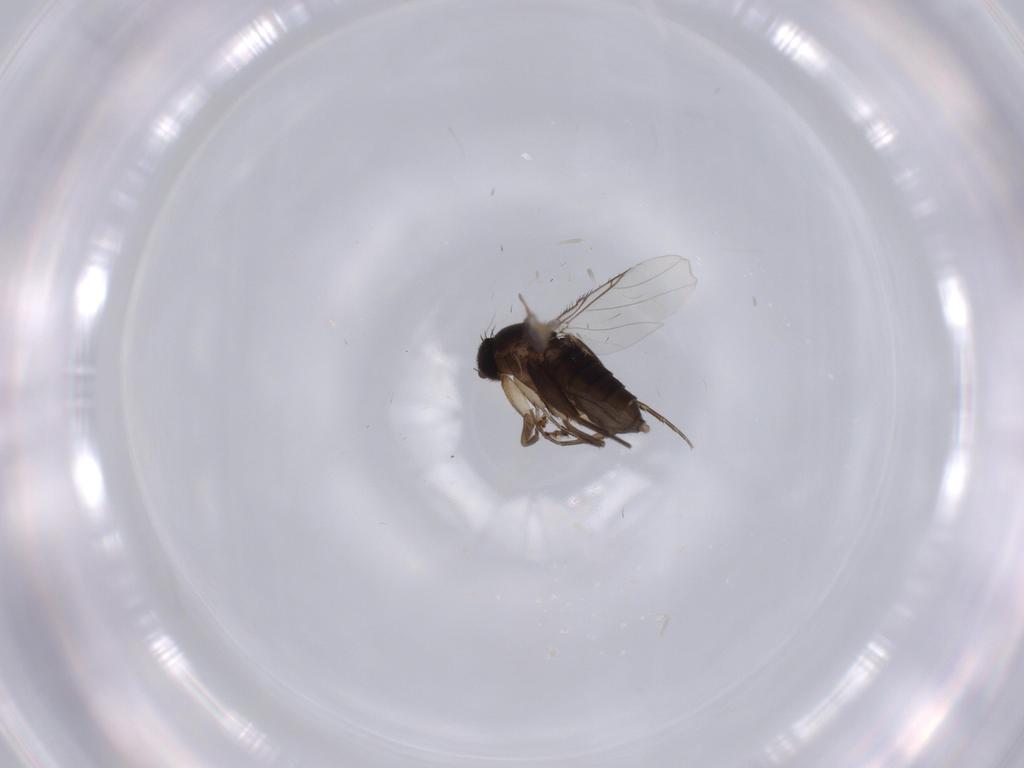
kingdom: Animalia
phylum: Arthropoda
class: Insecta
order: Diptera
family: Phoridae
